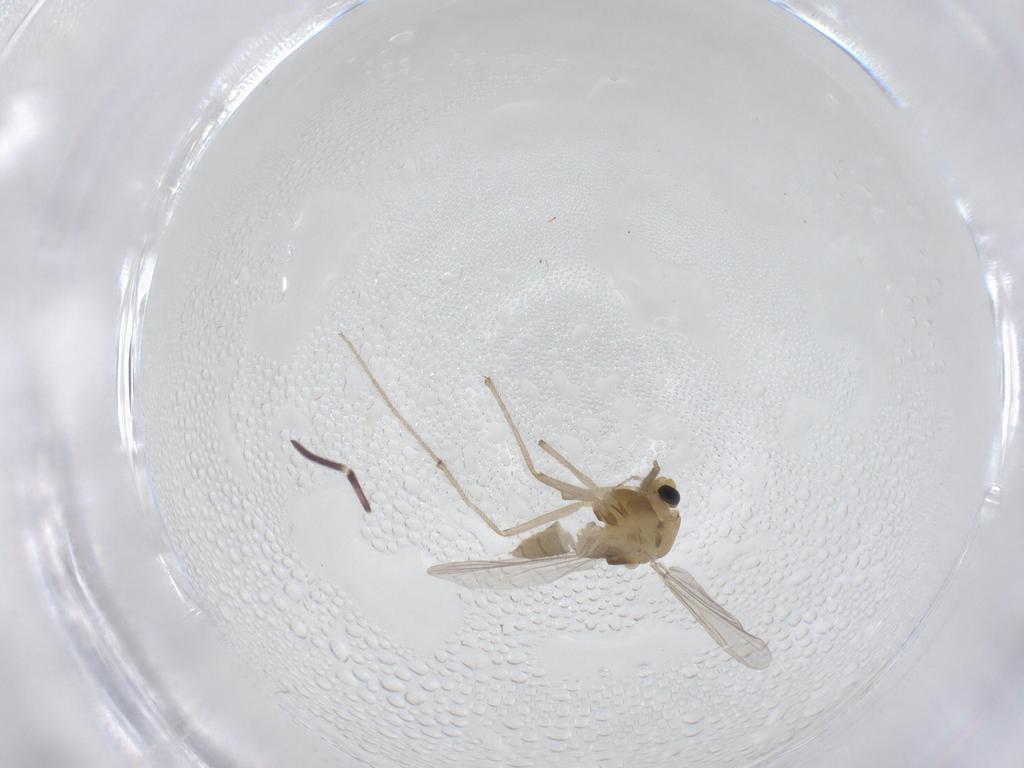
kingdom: Animalia
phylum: Arthropoda
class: Insecta
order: Diptera
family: Chironomidae
